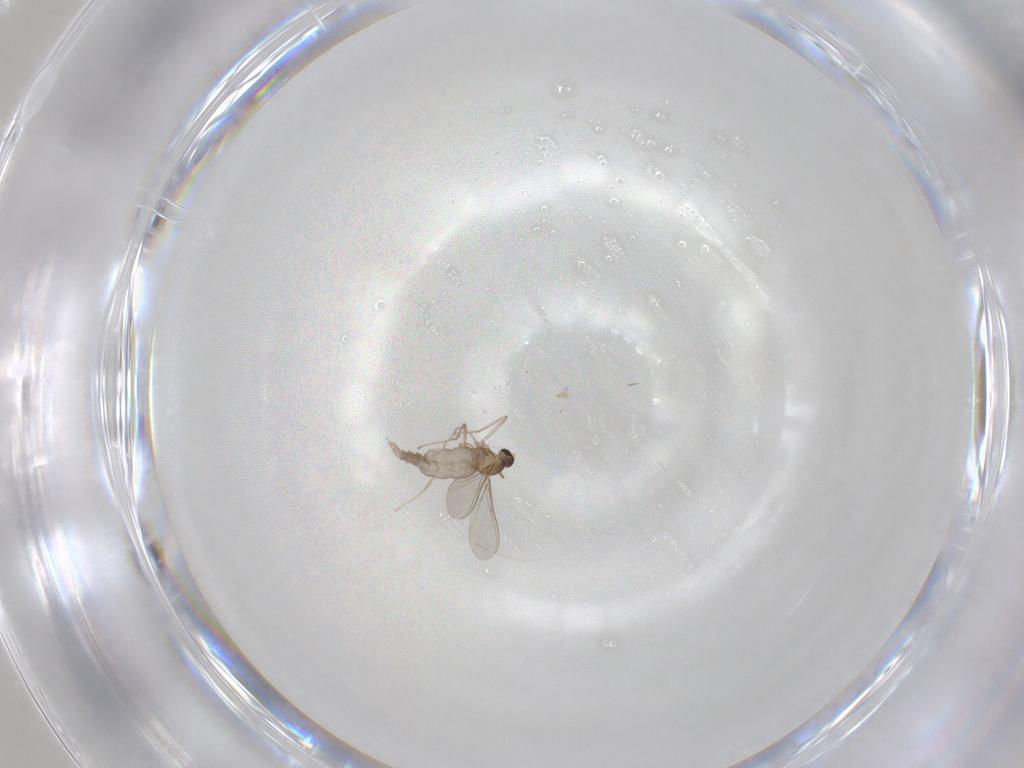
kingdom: Animalia
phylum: Arthropoda
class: Insecta
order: Diptera
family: Cecidomyiidae
